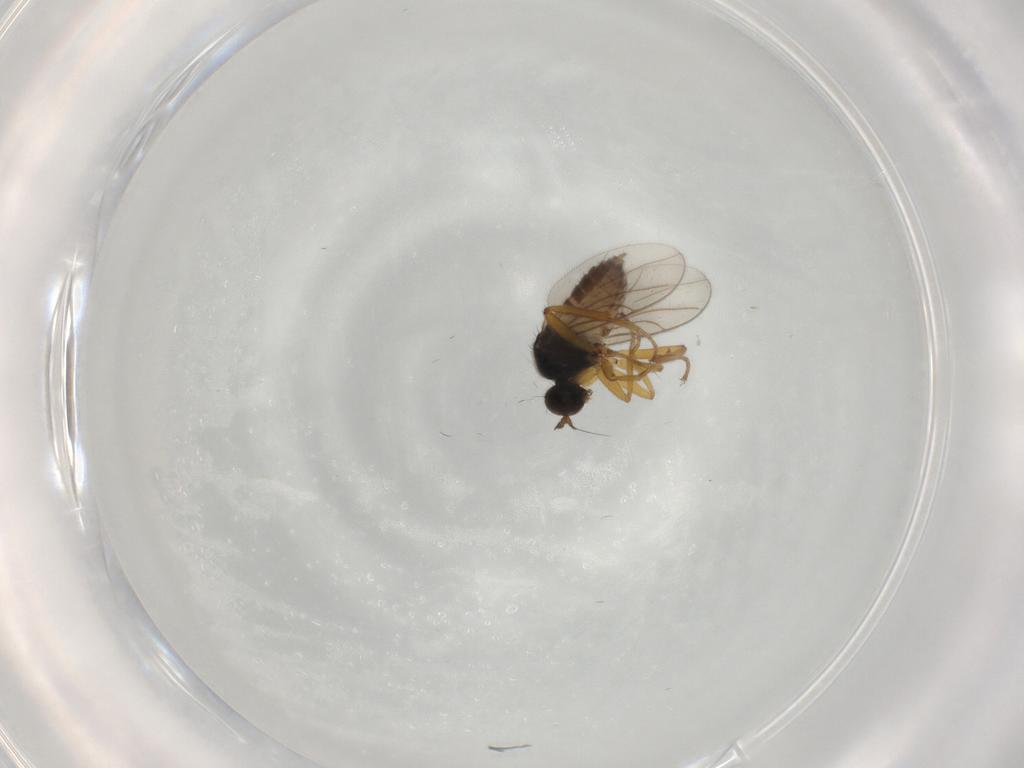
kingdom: Animalia
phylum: Arthropoda
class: Insecta
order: Diptera
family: Hybotidae
